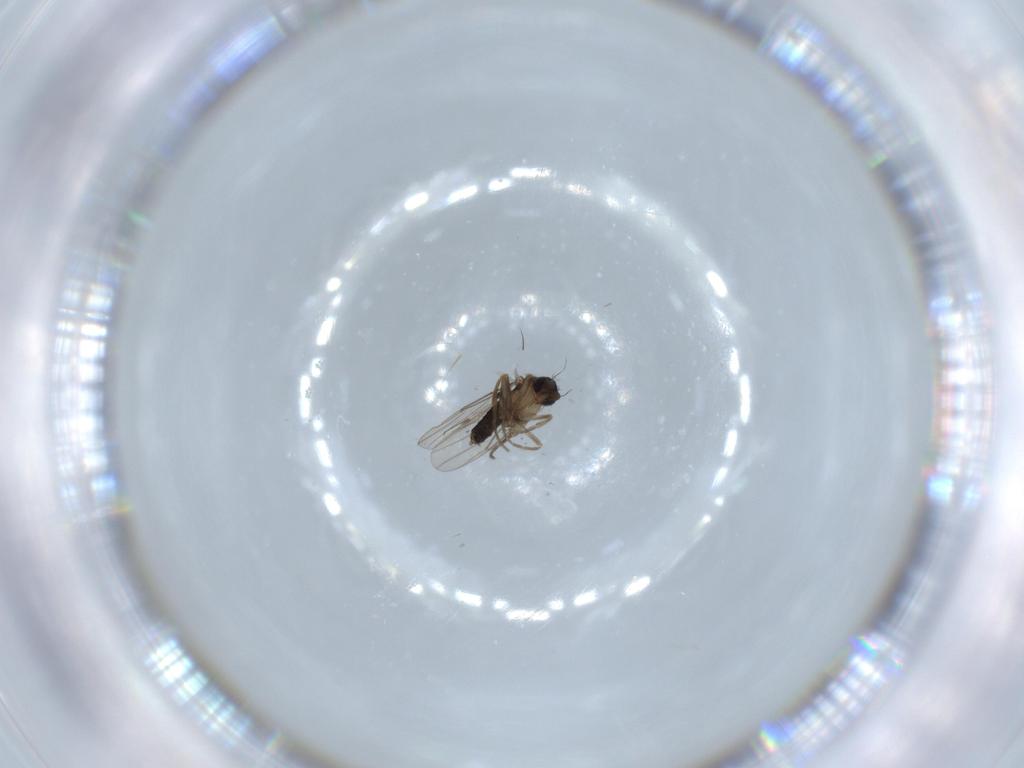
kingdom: Animalia
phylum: Arthropoda
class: Insecta
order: Diptera
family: Phoridae
